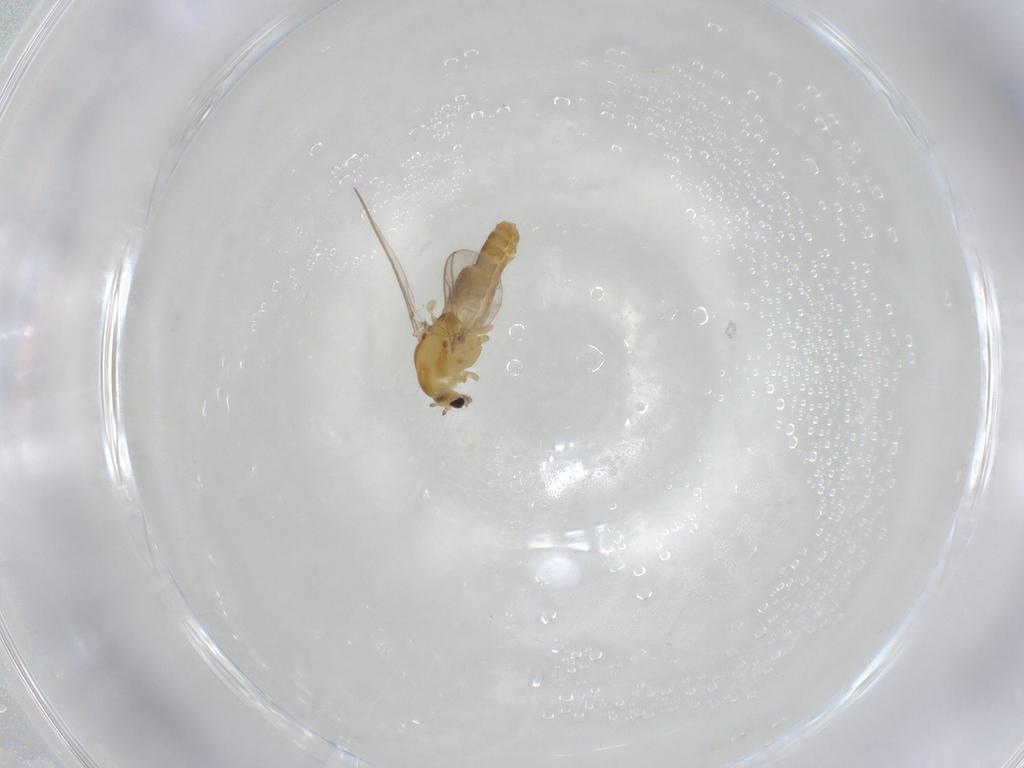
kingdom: Animalia
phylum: Arthropoda
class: Insecta
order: Diptera
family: Chironomidae
